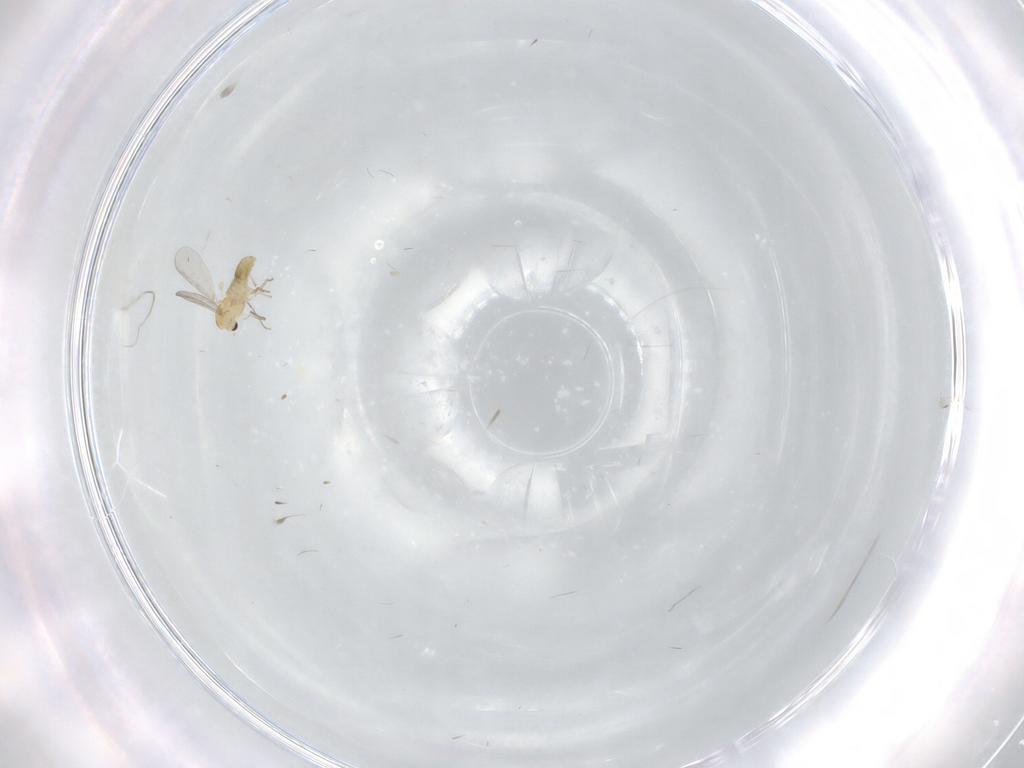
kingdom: Animalia
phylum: Arthropoda
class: Insecta
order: Diptera
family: Chironomidae
